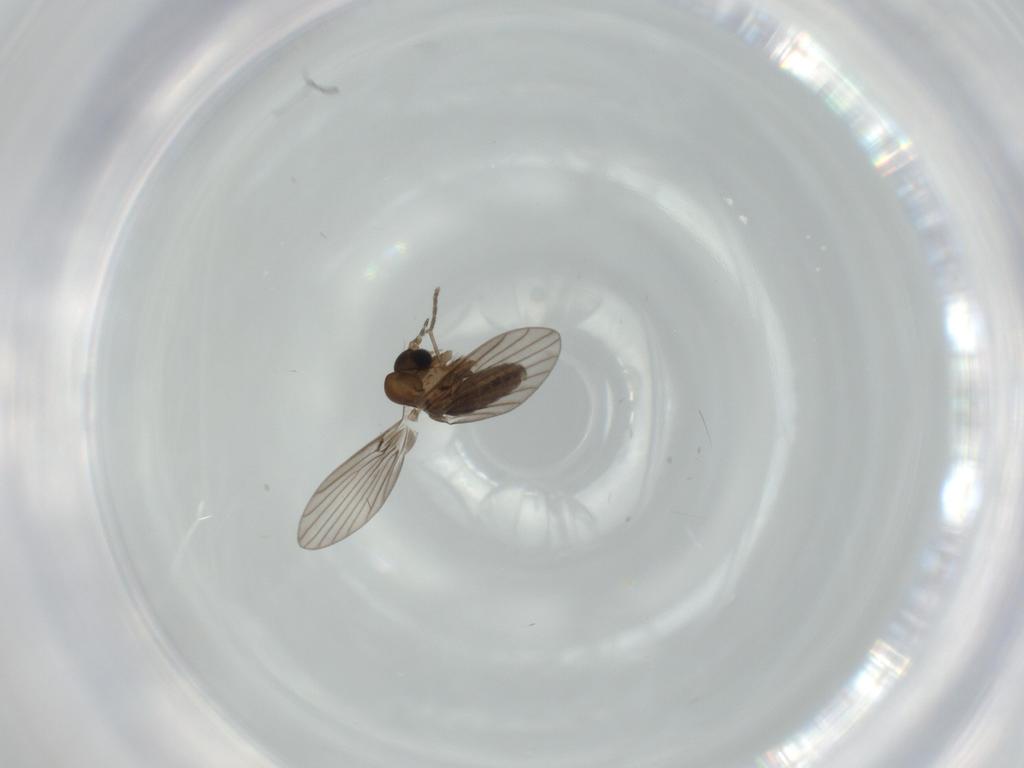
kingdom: Animalia
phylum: Arthropoda
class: Insecta
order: Diptera
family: Psychodidae
